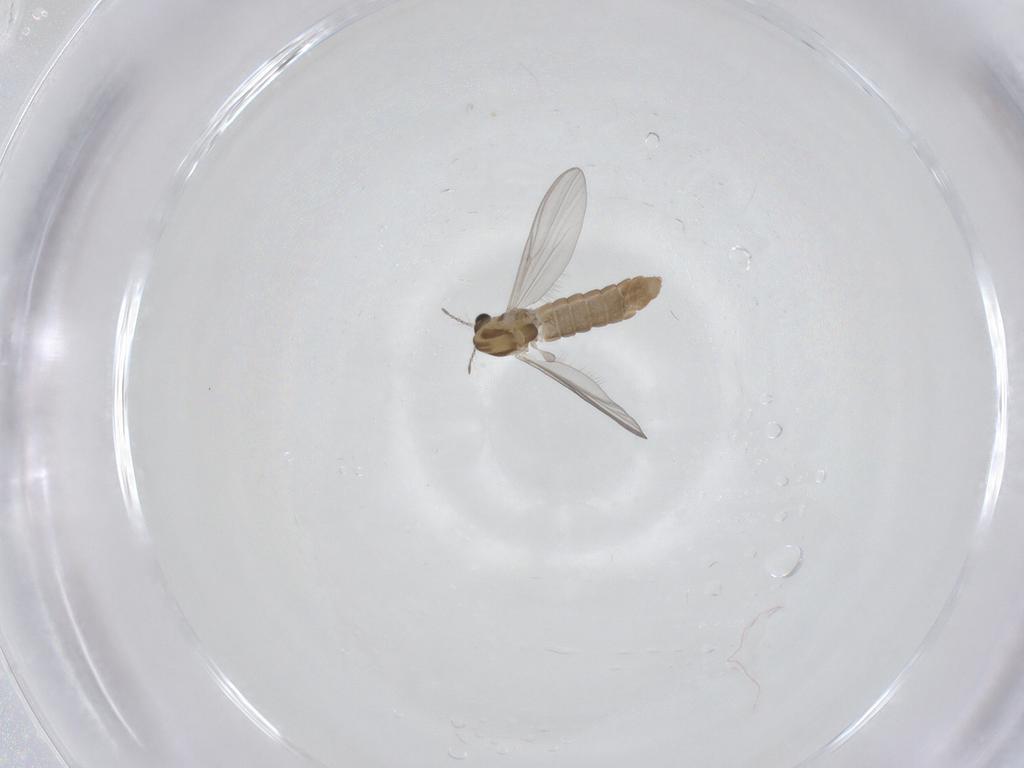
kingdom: Animalia
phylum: Arthropoda
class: Insecta
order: Diptera
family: Chironomidae
